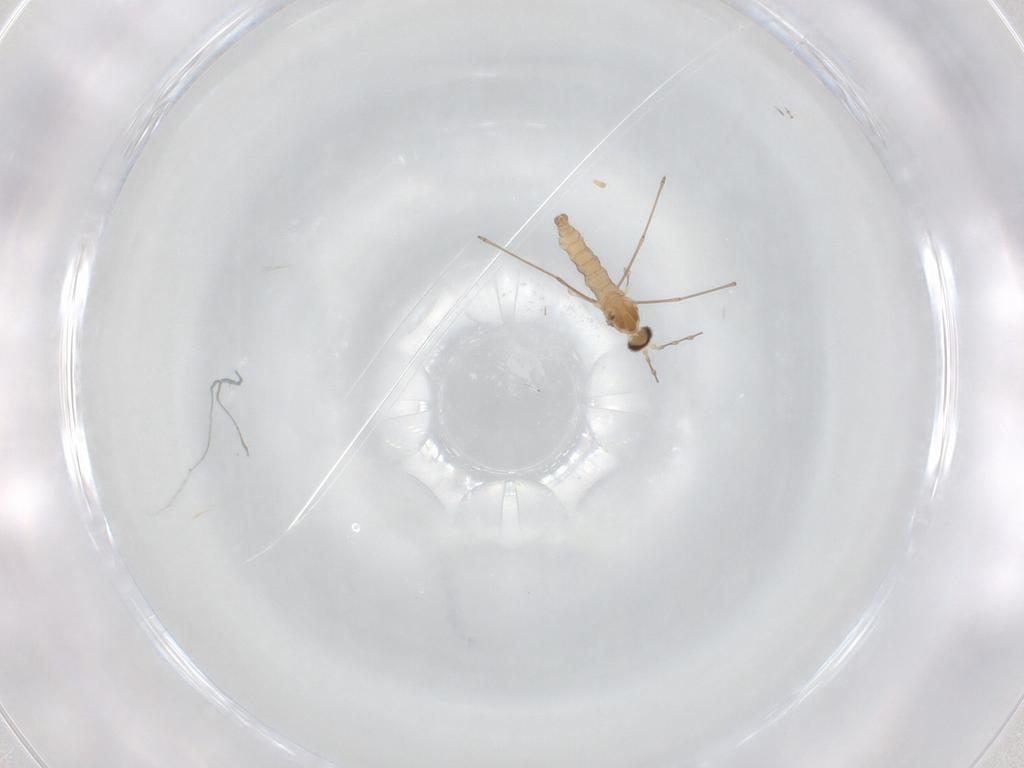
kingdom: Animalia
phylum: Arthropoda
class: Insecta
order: Diptera
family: Cecidomyiidae
